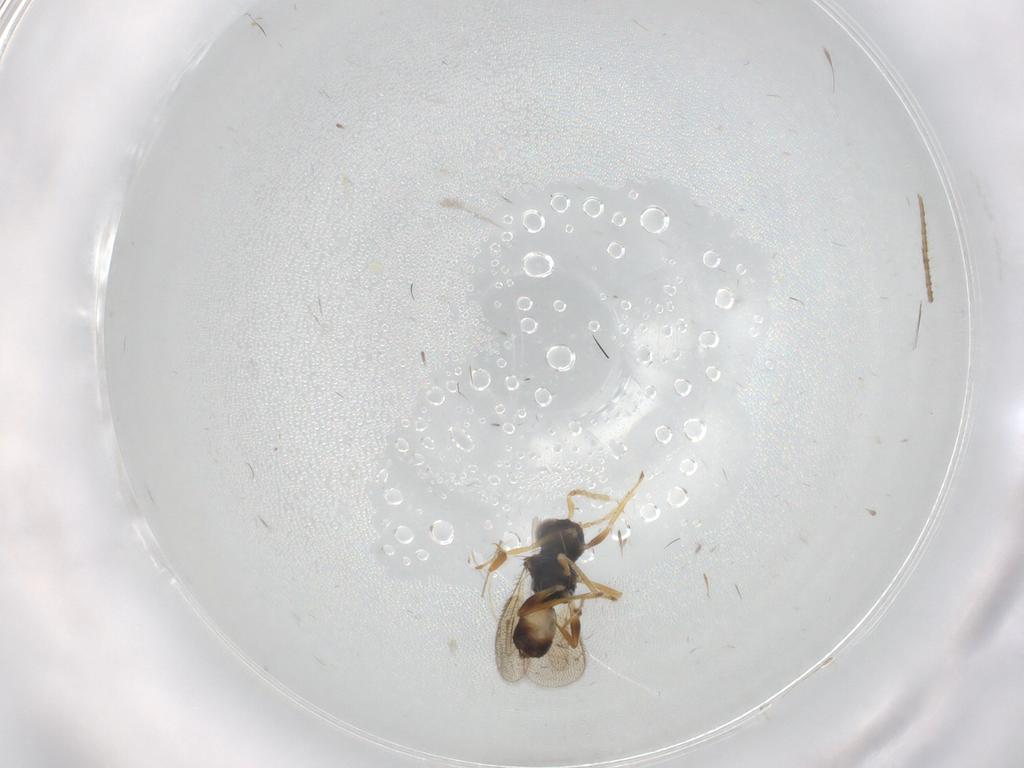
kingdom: Animalia
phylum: Arthropoda
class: Insecta
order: Hymenoptera
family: Formicidae
